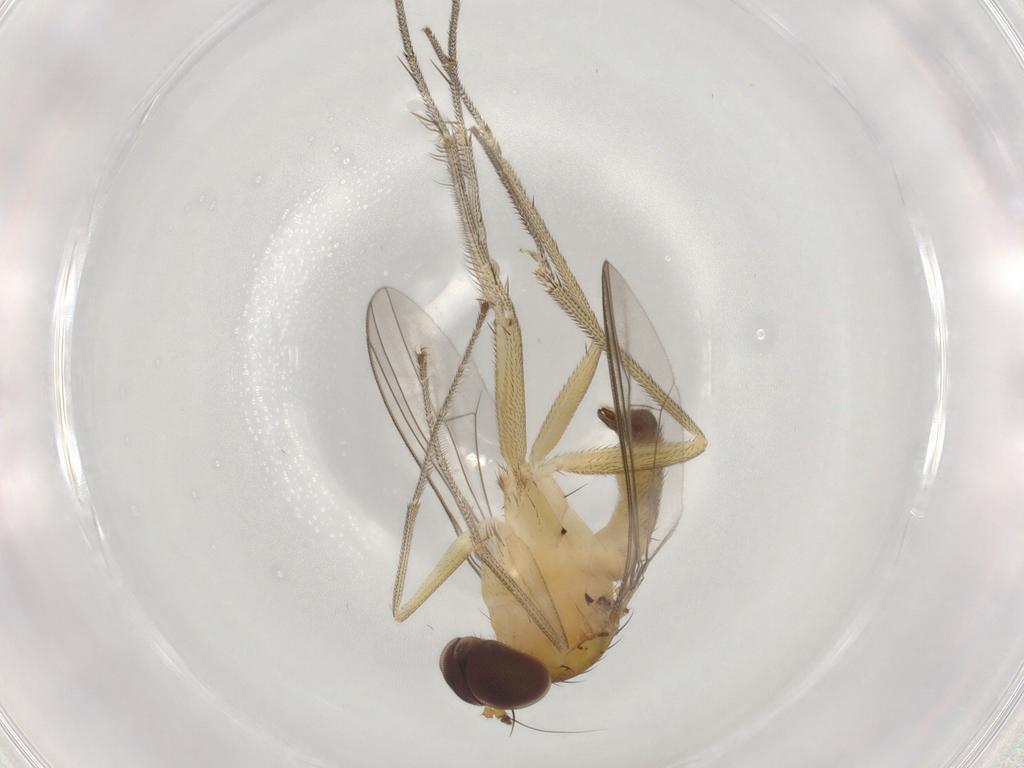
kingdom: Animalia
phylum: Arthropoda
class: Insecta
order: Diptera
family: Dolichopodidae
